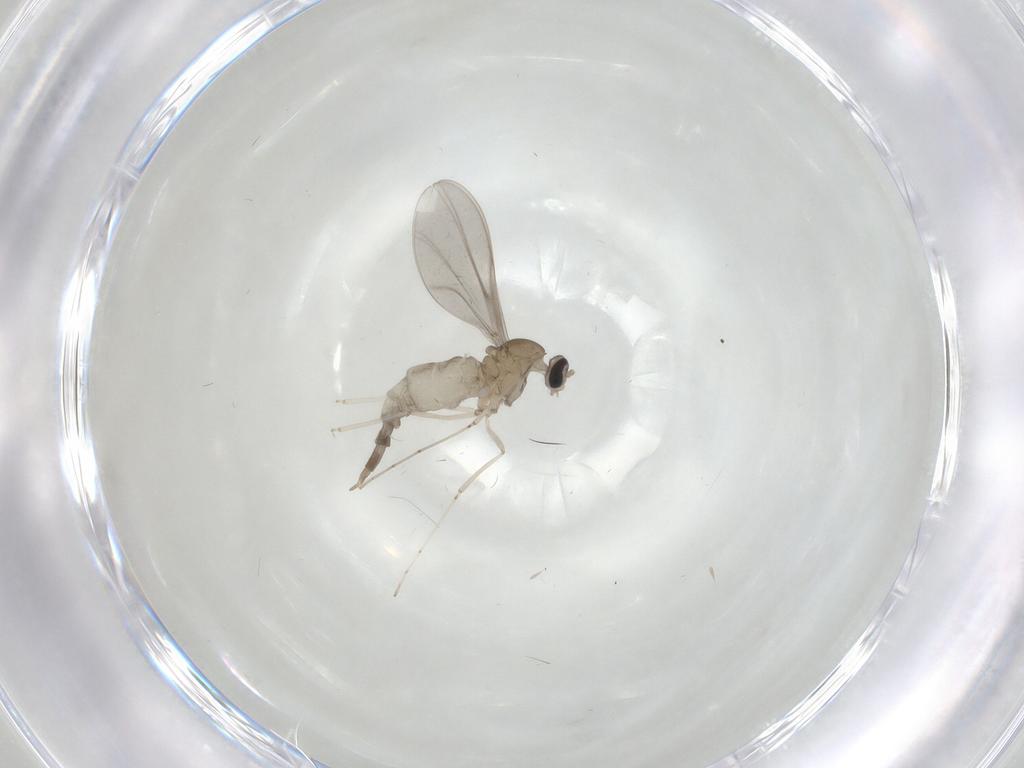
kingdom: Animalia
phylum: Arthropoda
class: Insecta
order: Diptera
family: Cecidomyiidae
